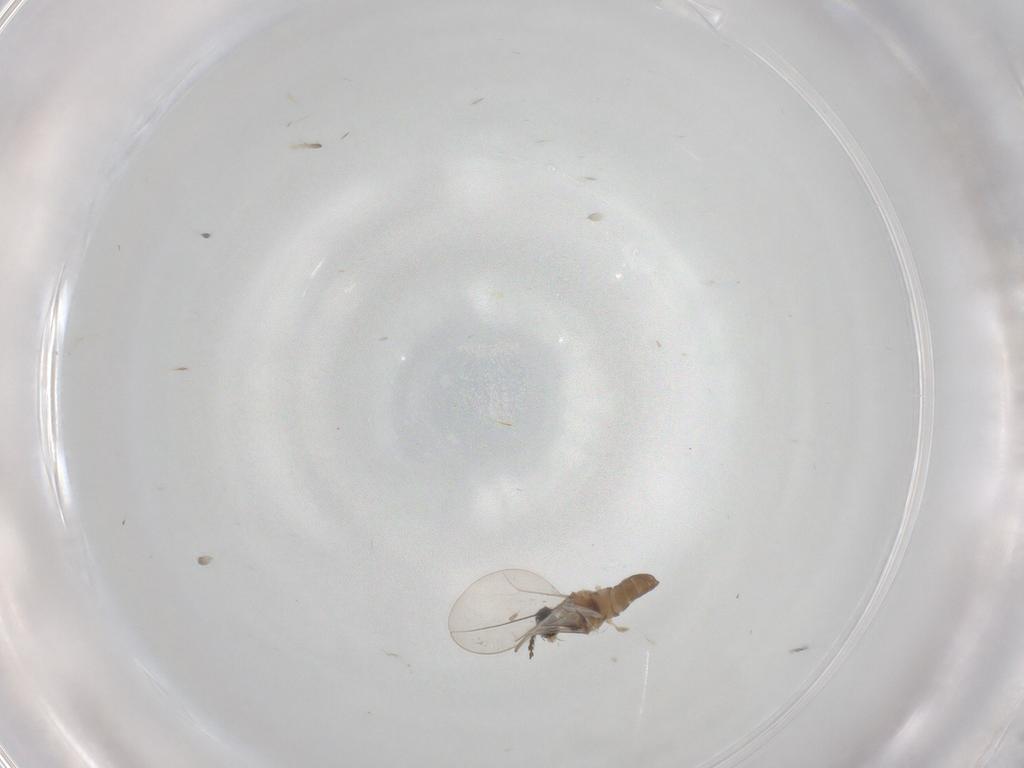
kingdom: Animalia
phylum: Arthropoda
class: Insecta
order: Diptera
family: Cecidomyiidae
